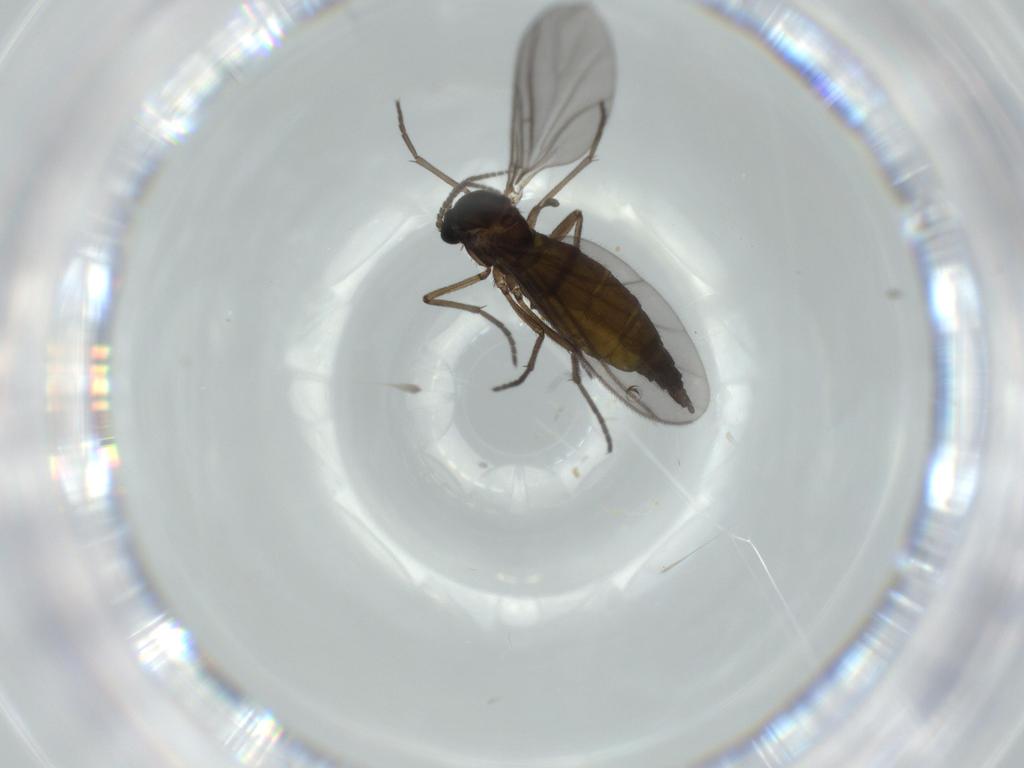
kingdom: Animalia
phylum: Arthropoda
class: Insecta
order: Diptera
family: Sciaridae
